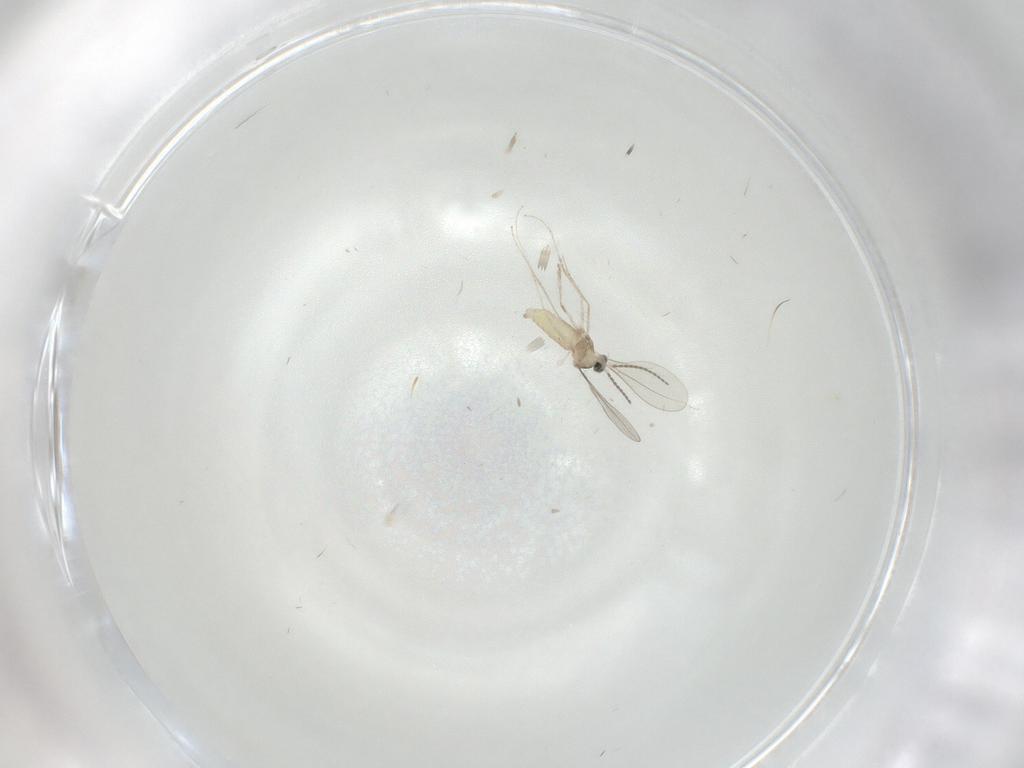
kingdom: Animalia
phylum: Arthropoda
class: Insecta
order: Diptera
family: Cecidomyiidae
